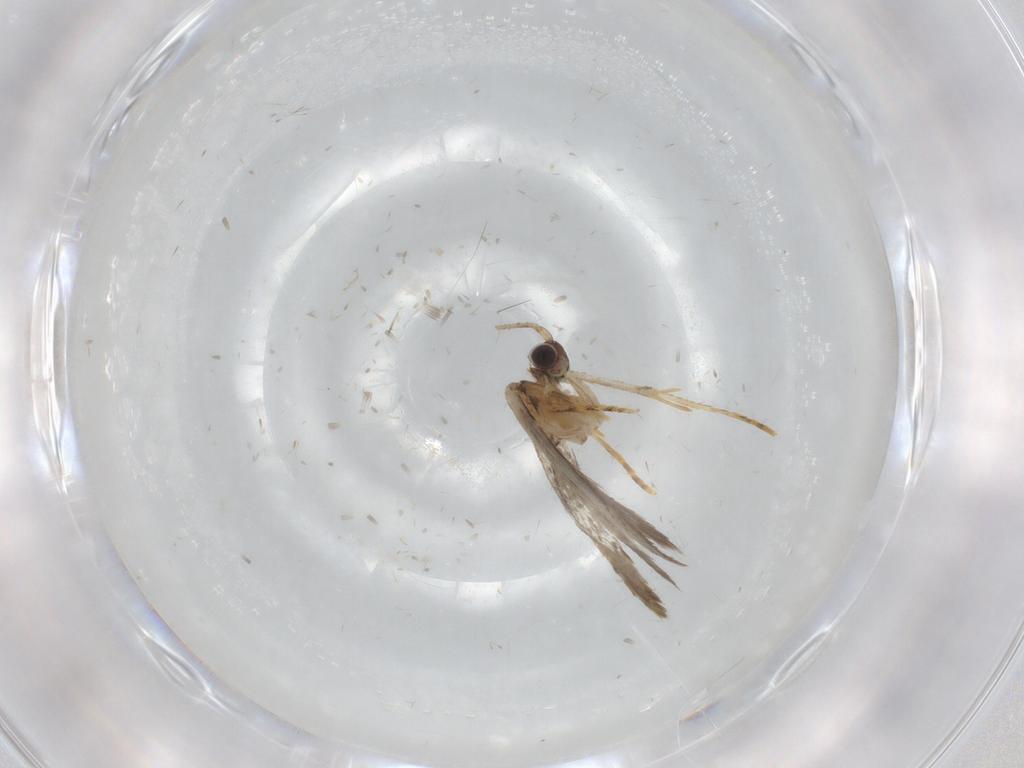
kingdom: Animalia
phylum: Arthropoda
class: Insecta
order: Lepidoptera
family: Tineidae
